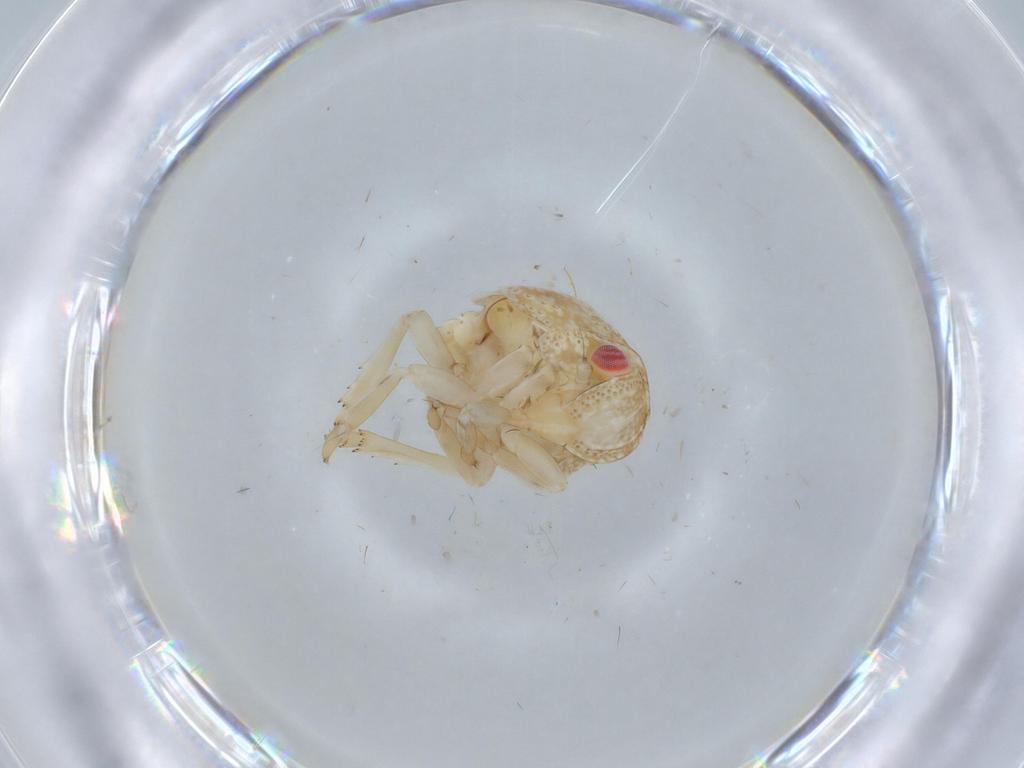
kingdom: Animalia
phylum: Arthropoda
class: Insecta
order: Hemiptera
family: Acanaloniidae
